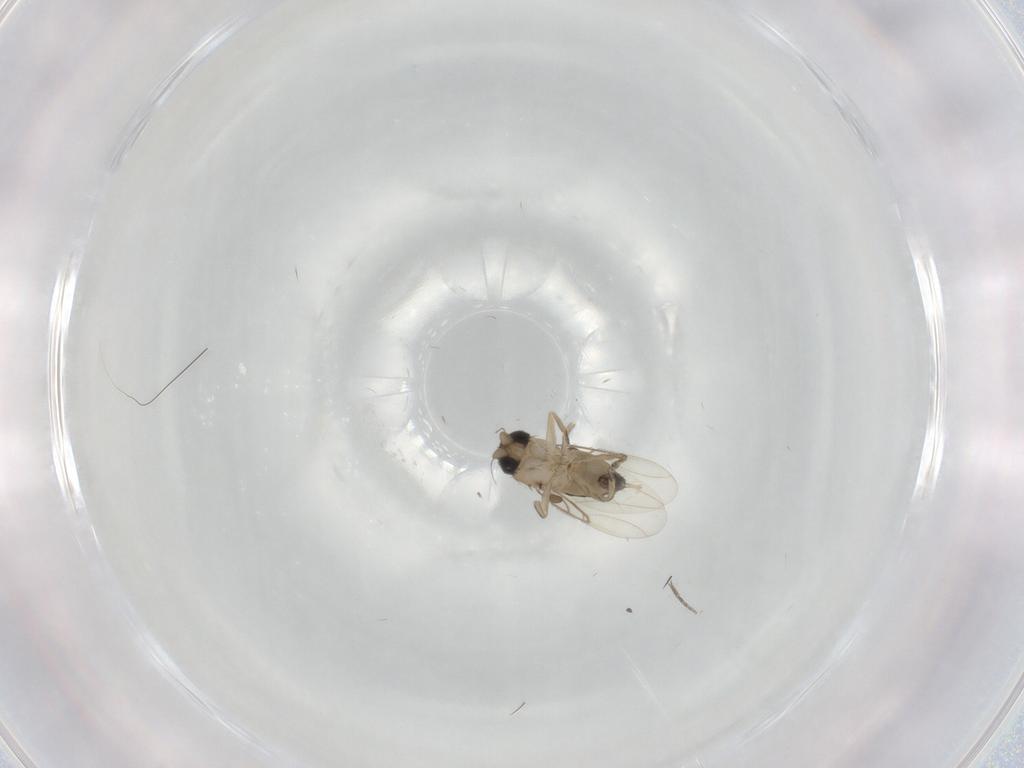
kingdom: Animalia
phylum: Arthropoda
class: Insecta
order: Diptera
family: Phoridae
